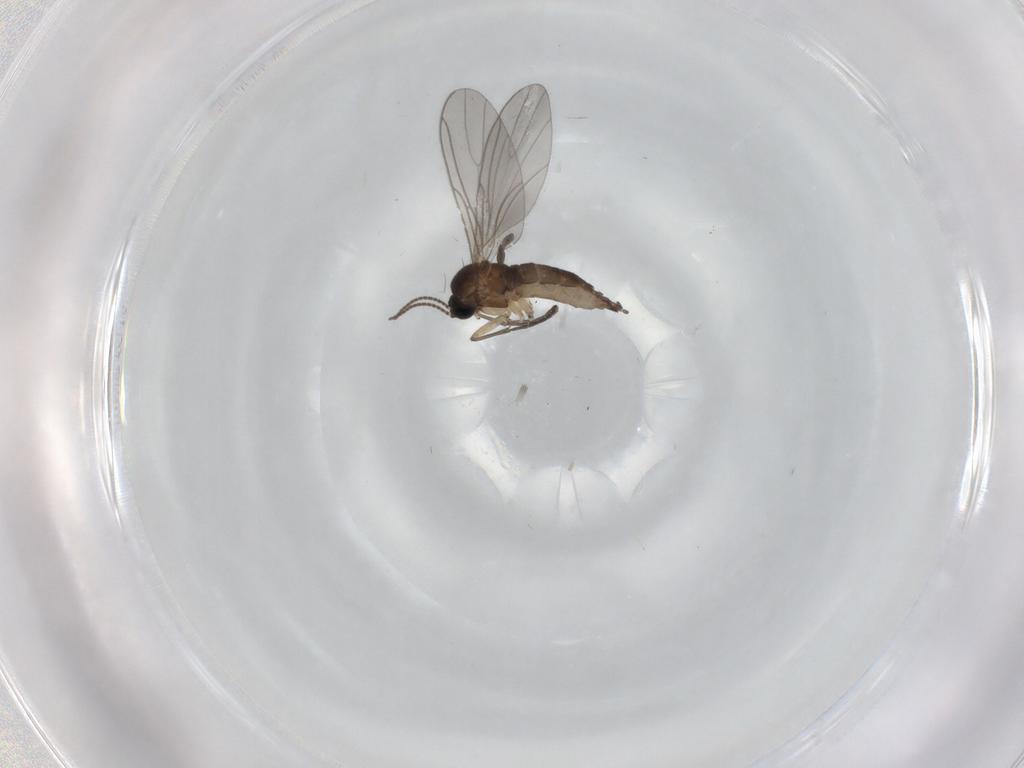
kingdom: Animalia
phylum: Arthropoda
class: Insecta
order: Diptera
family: Sciaridae
